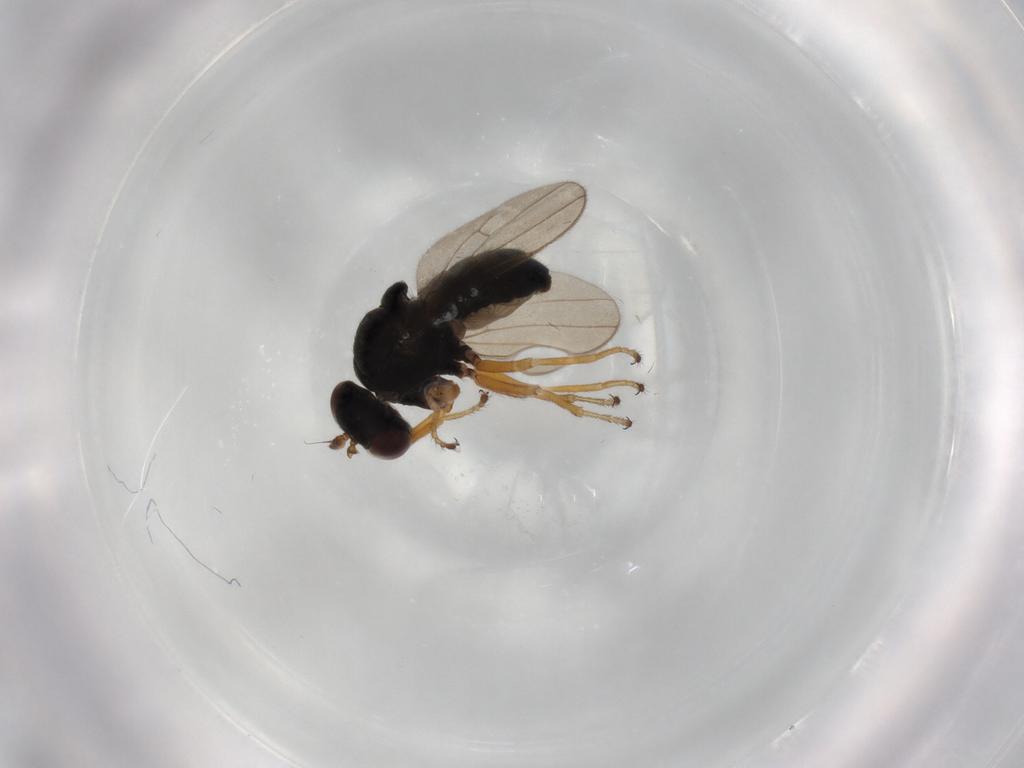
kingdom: Animalia
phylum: Arthropoda
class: Insecta
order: Diptera
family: Ephydridae
